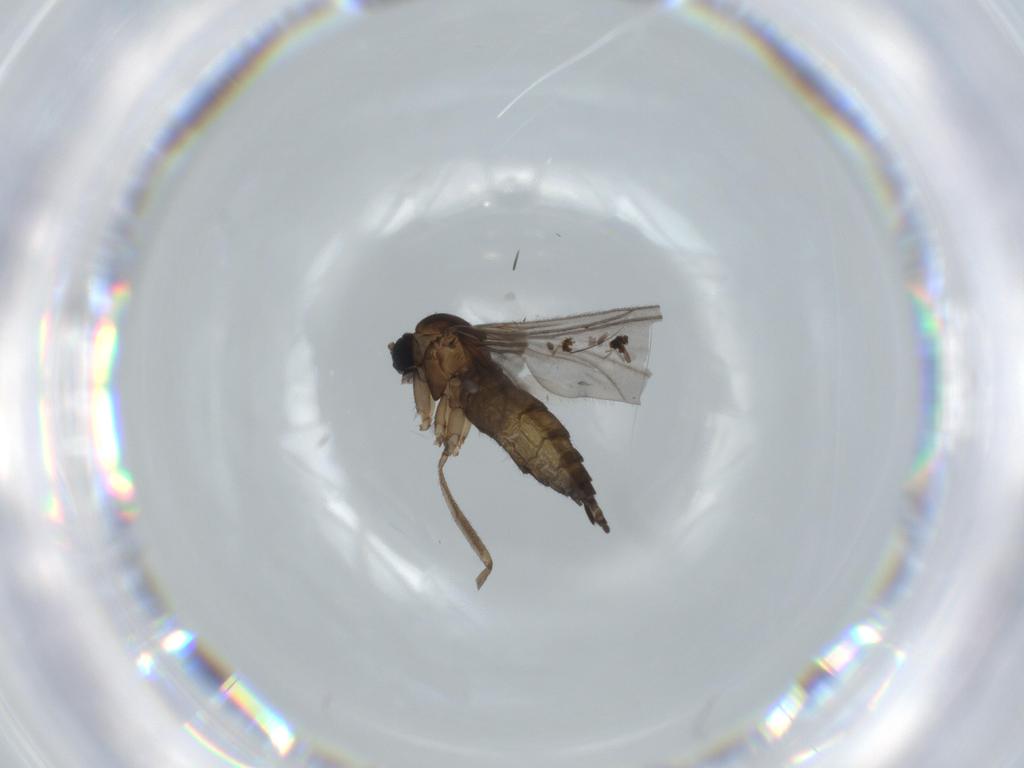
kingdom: Animalia
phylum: Arthropoda
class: Insecta
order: Diptera
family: Sciaridae
